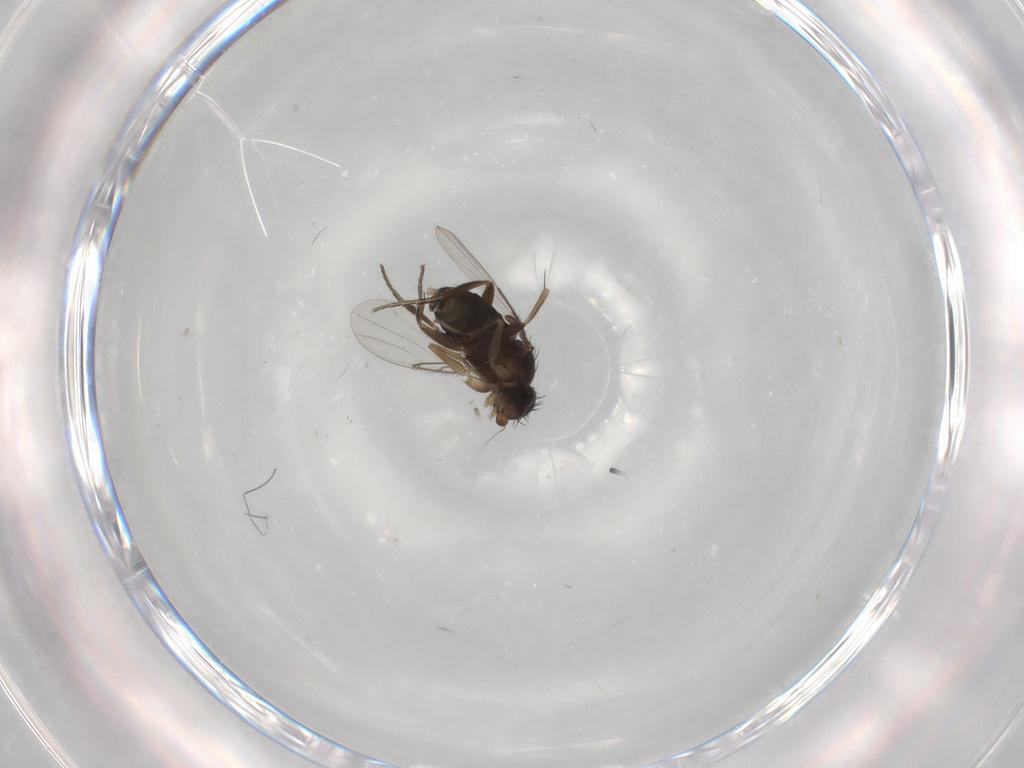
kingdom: Animalia
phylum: Arthropoda
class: Insecta
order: Diptera
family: Phoridae
